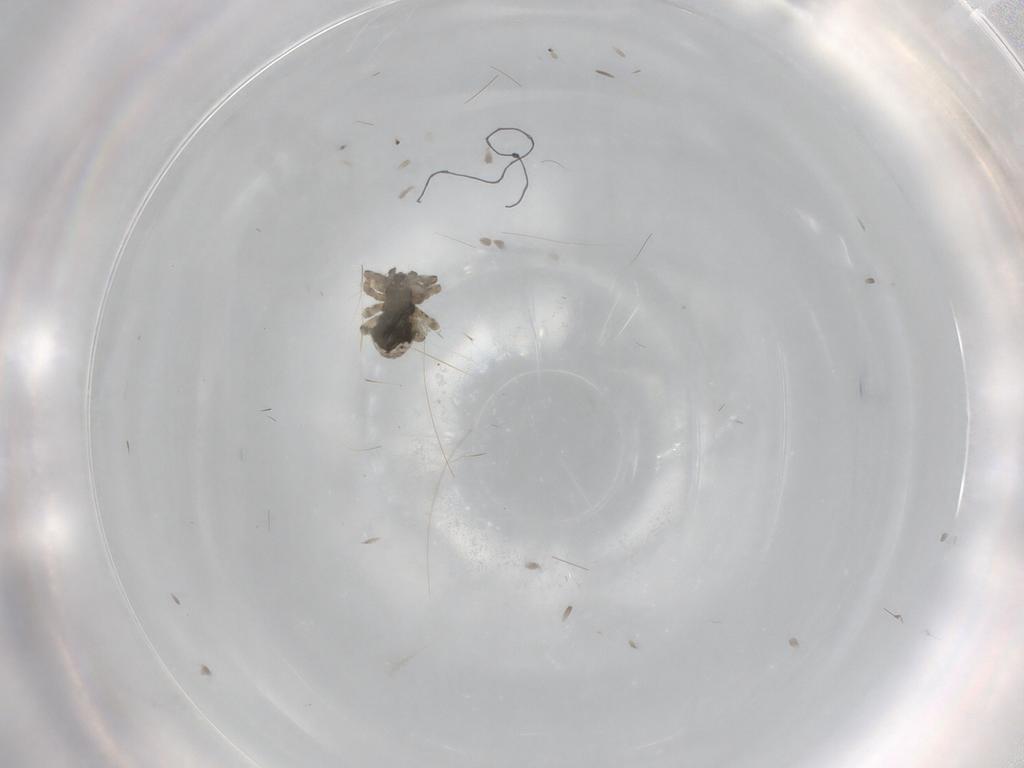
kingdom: Animalia
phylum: Arthropoda
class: Arachnida
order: Araneae
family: Theridiidae
